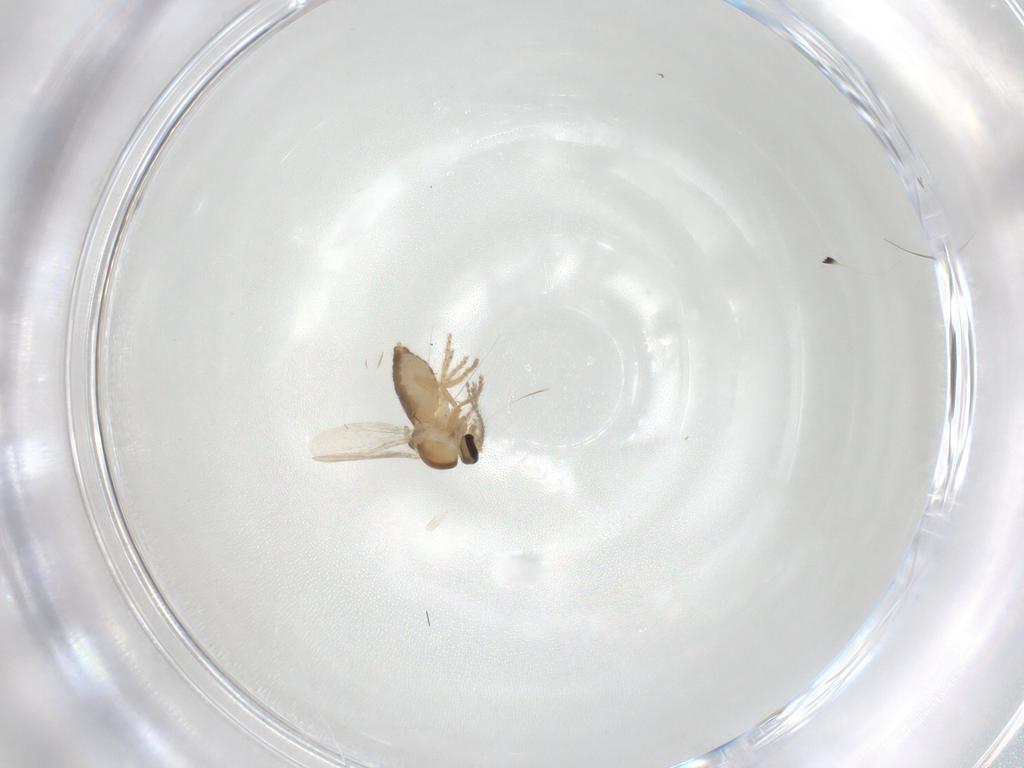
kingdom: Animalia
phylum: Arthropoda
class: Insecta
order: Diptera
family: Ceratopogonidae
